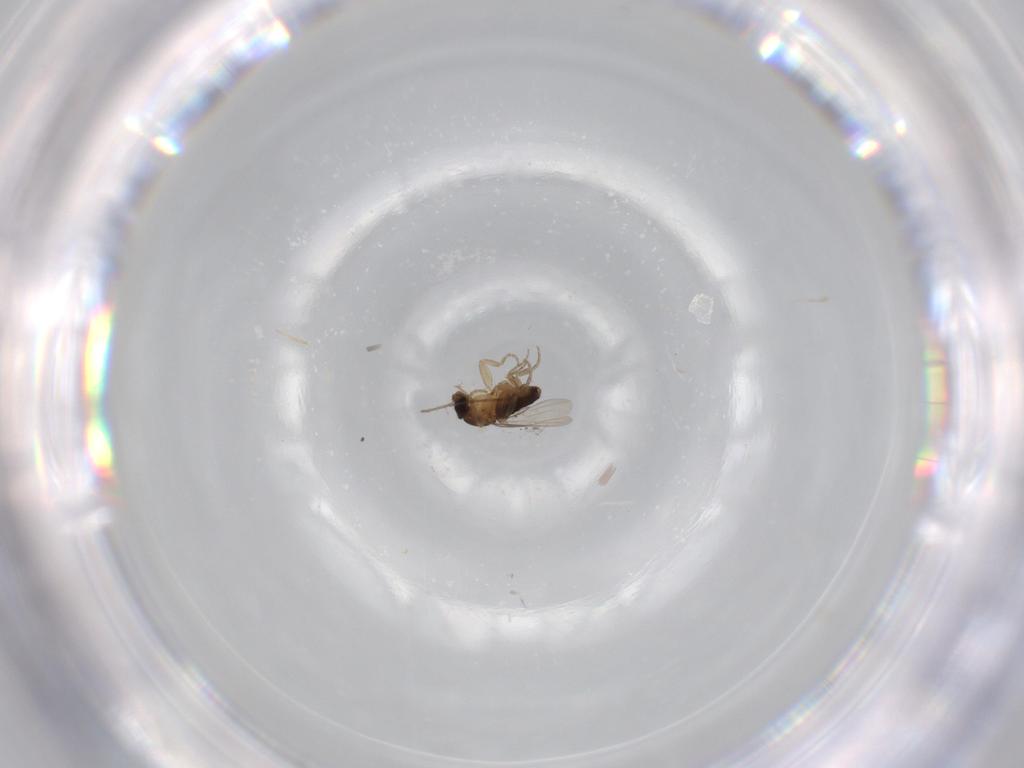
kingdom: Animalia
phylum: Arthropoda
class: Insecta
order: Diptera
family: Phoridae
